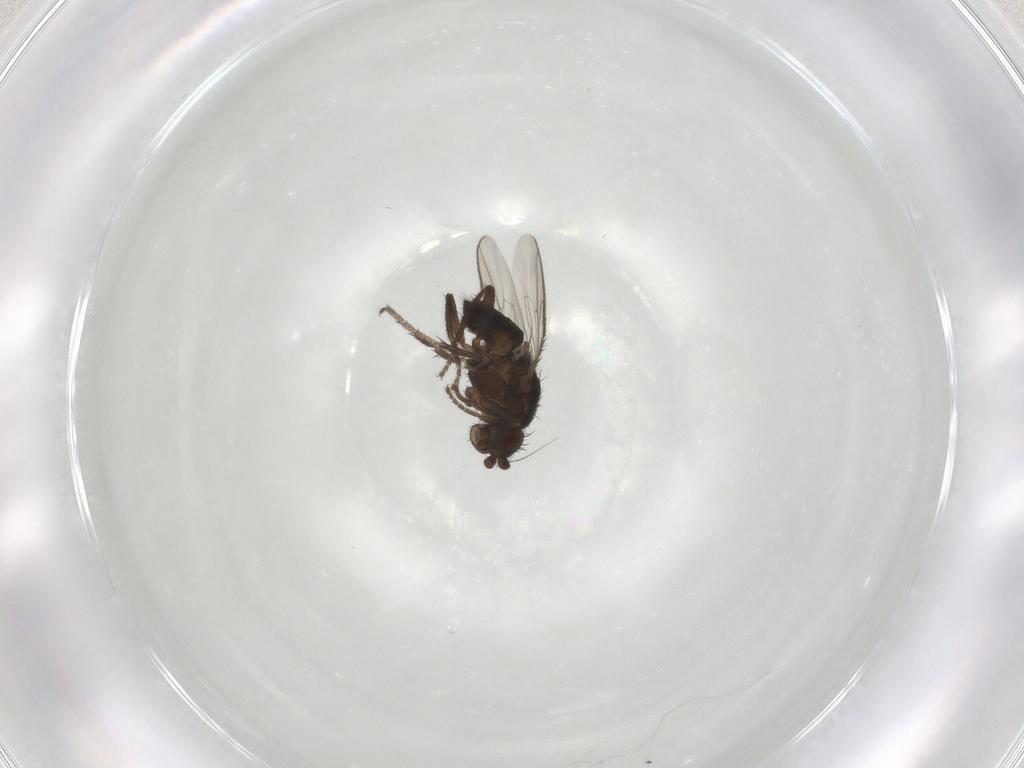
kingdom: Animalia
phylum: Arthropoda
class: Insecta
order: Diptera
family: Sphaeroceridae
